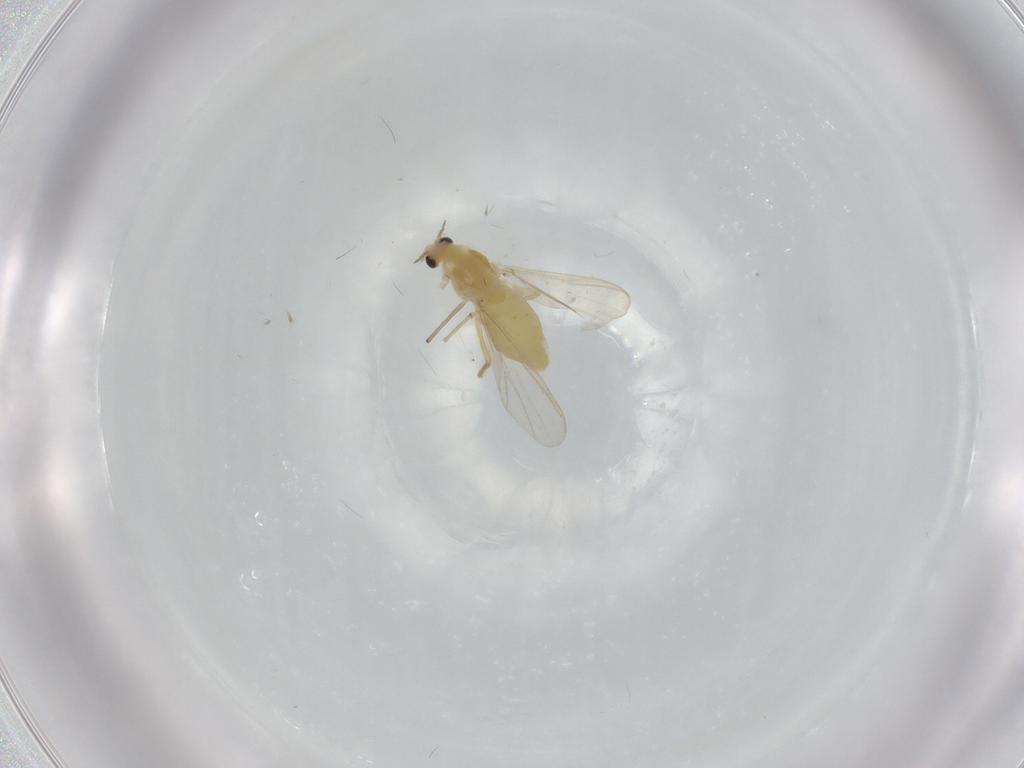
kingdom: Animalia
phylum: Arthropoda
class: Insecta
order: Diptera
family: Chironomidae
